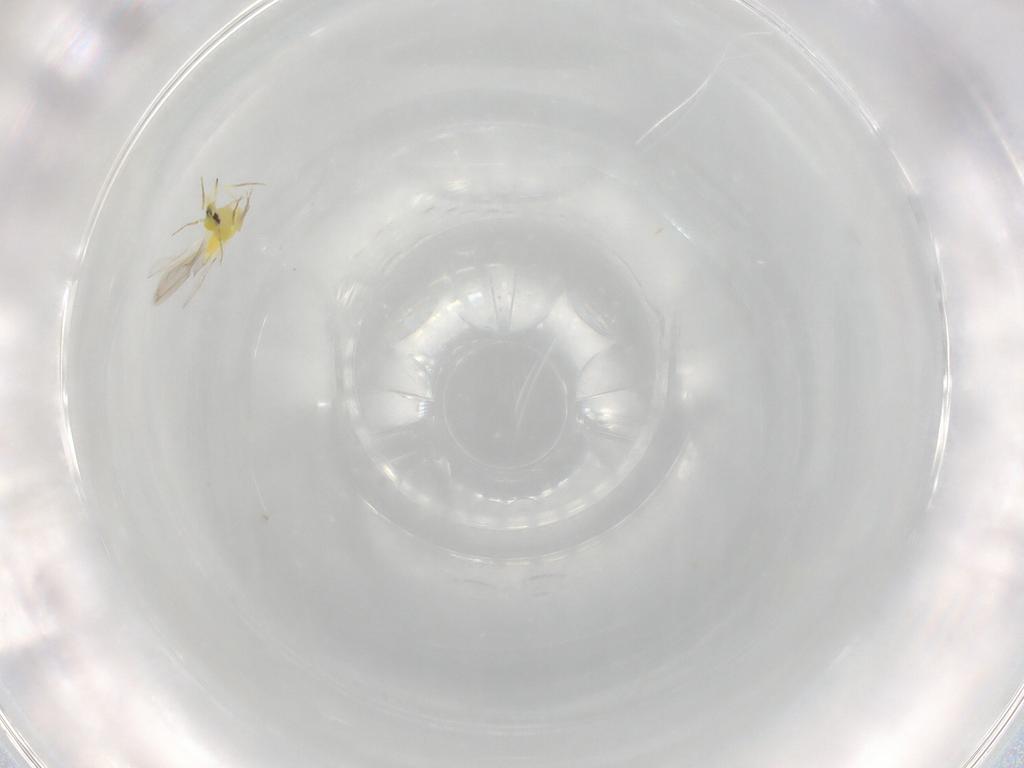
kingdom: Animalia
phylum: Arthropoda
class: Insecta
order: Hemiptera
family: Aleyrodidae
